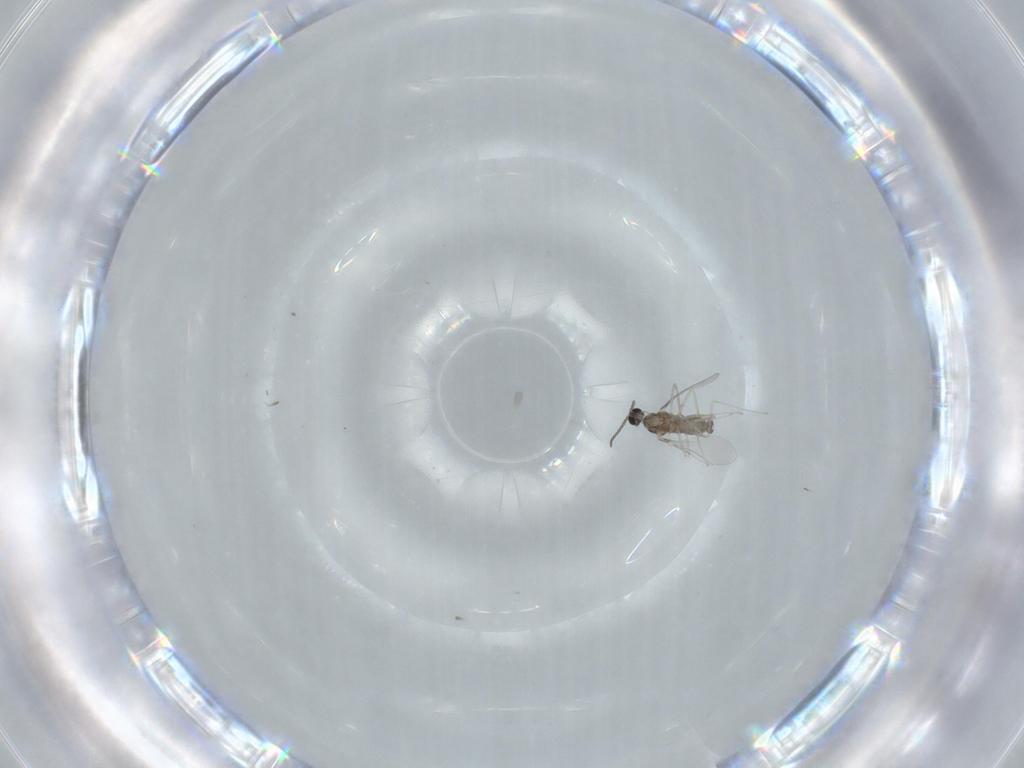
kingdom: Animalia
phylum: Arthropoda
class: Insecta
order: Diptera
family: Cecidomyiidae
